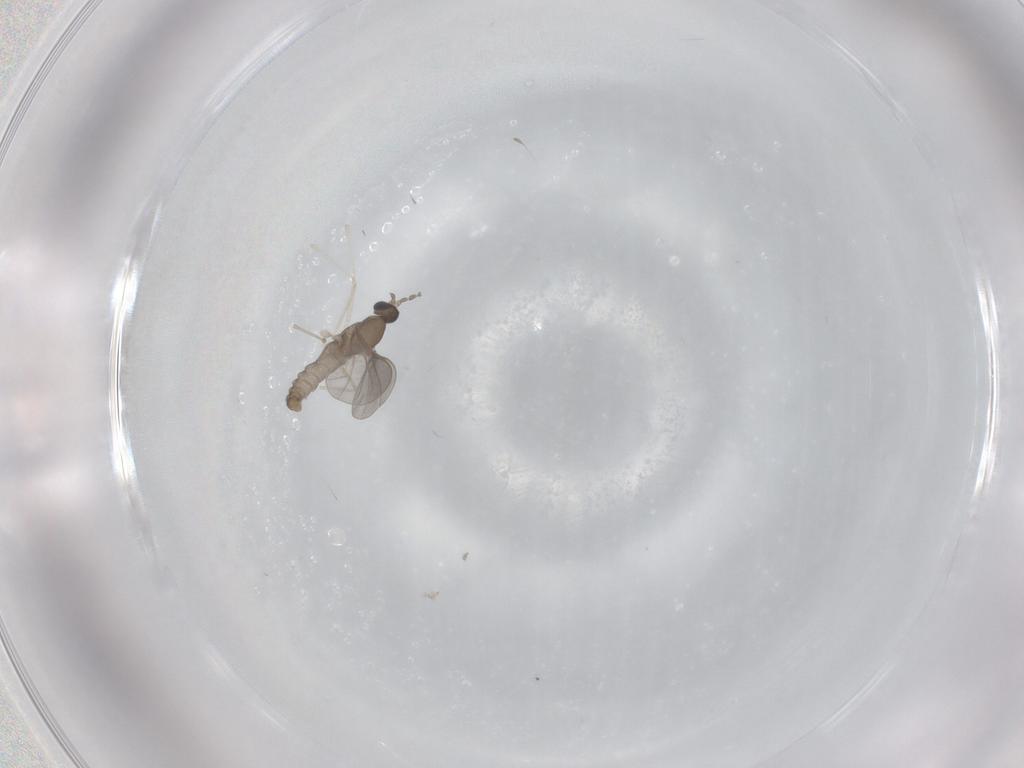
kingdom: Animalia
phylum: Arthropoda
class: Insecta
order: Diptera
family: Cecidomyiidae
